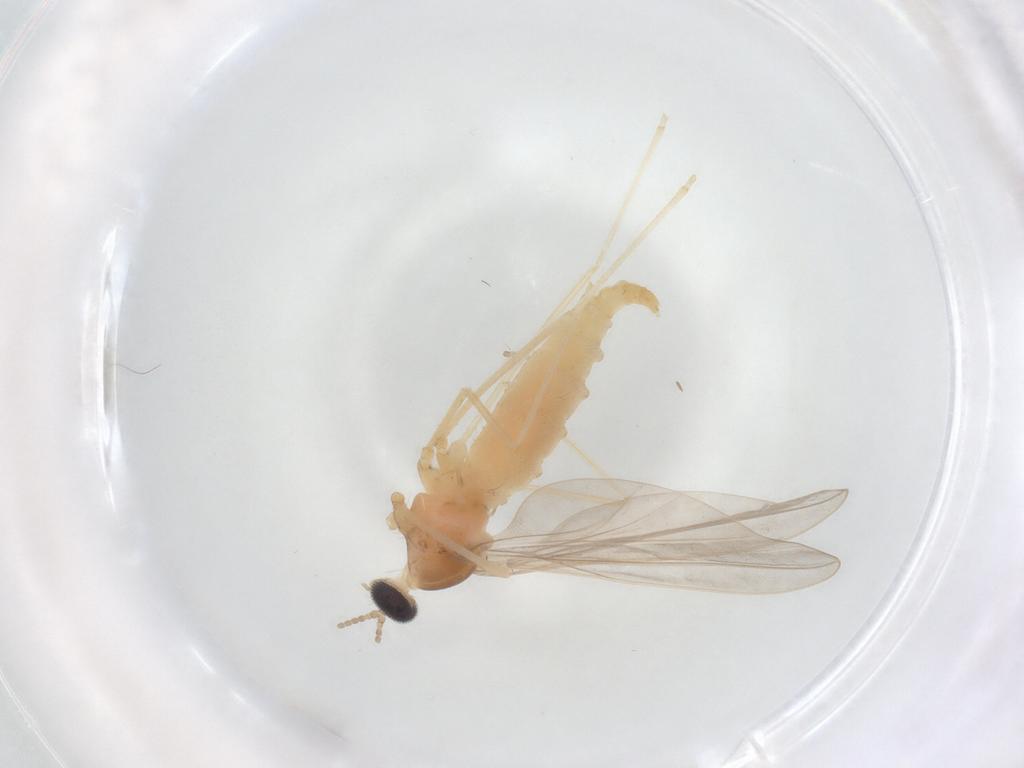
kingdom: Animalia
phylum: Arthropoda
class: Insecta
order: Diptera
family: Cecidomyiidae
